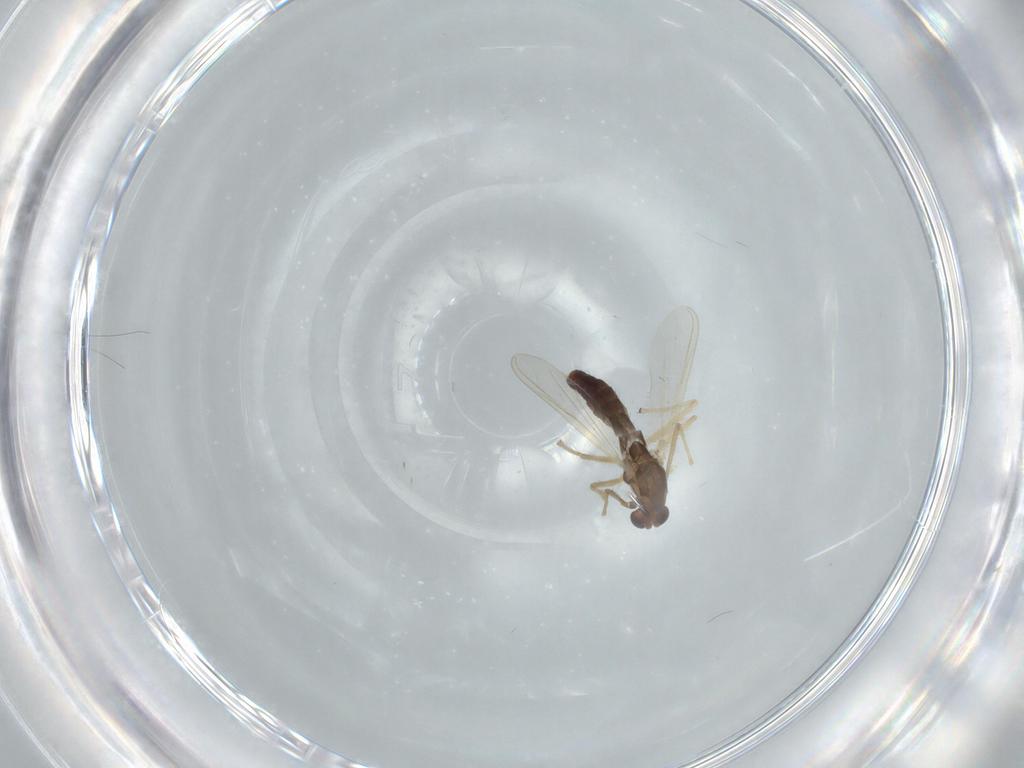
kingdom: Animalia
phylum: Arthropoda
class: Insecta
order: Diptera
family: Chironomidae
